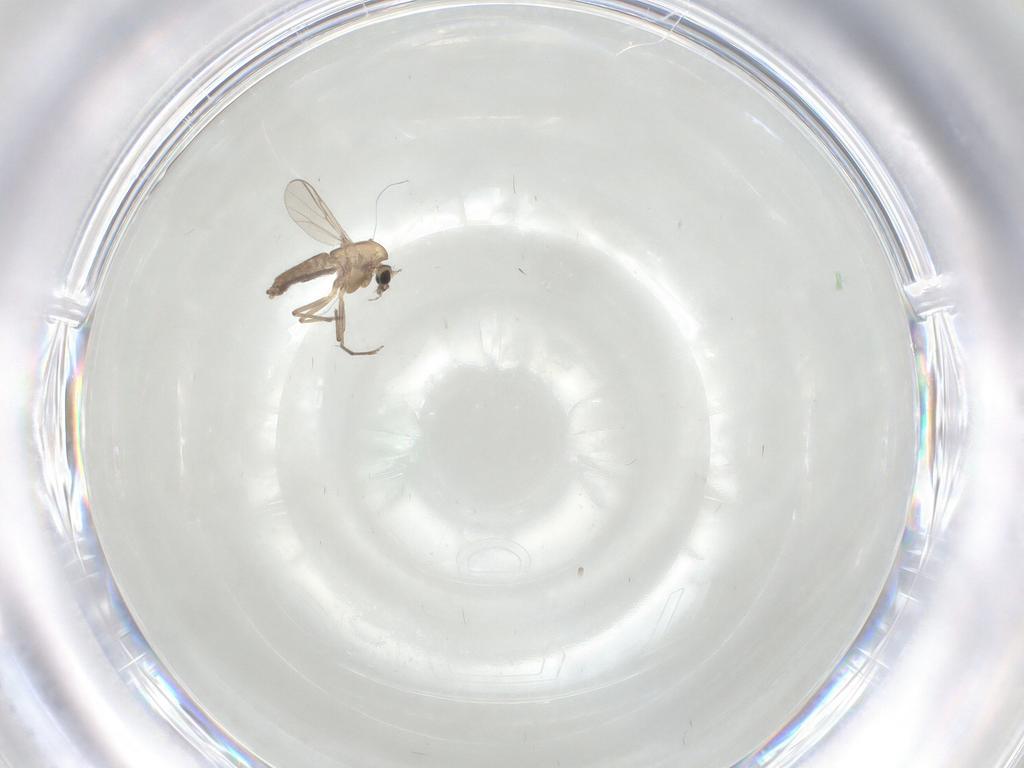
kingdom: Animalia
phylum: Arthropoda
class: Insecta
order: Diptera
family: Chironomidae
